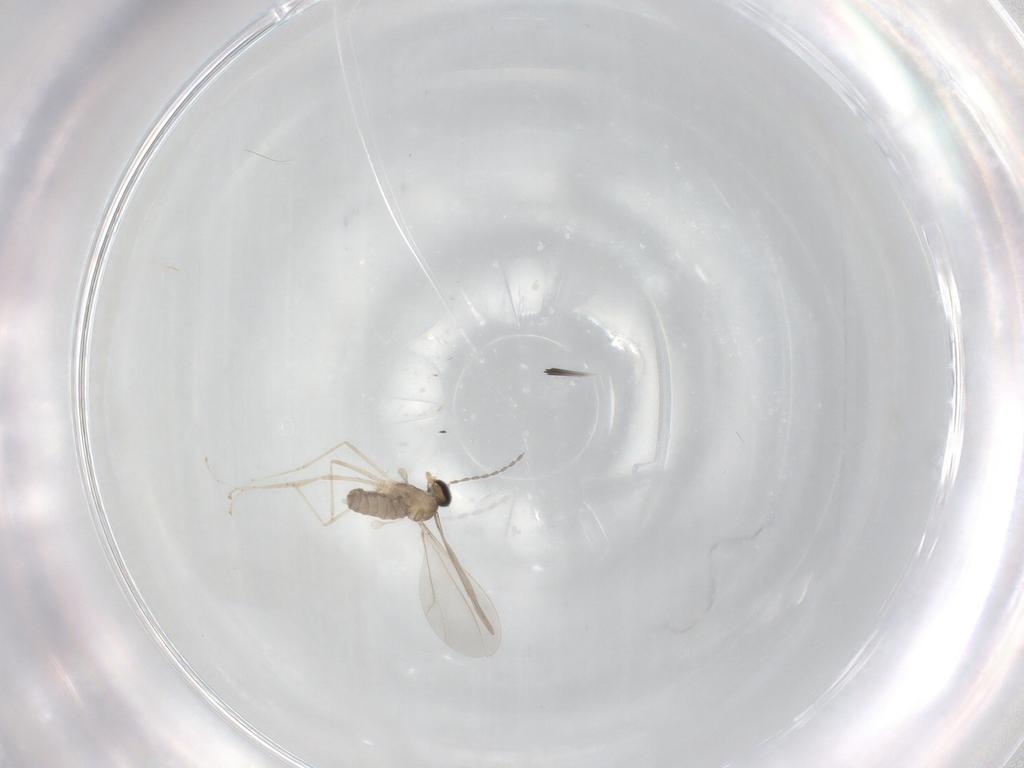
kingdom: Animalia
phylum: Arthropoda
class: Insecta
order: Diptera
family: Cecidomyiidae
